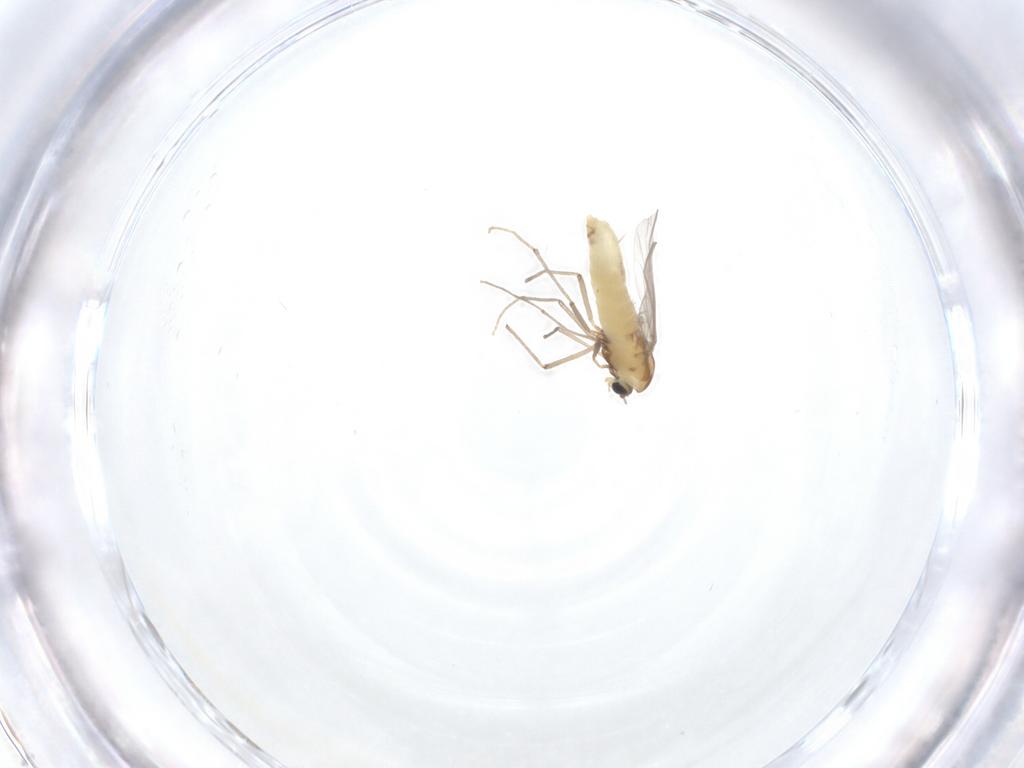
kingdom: Animalia
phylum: Arthropoda
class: Insecta
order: Diptera
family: Chironomidae
